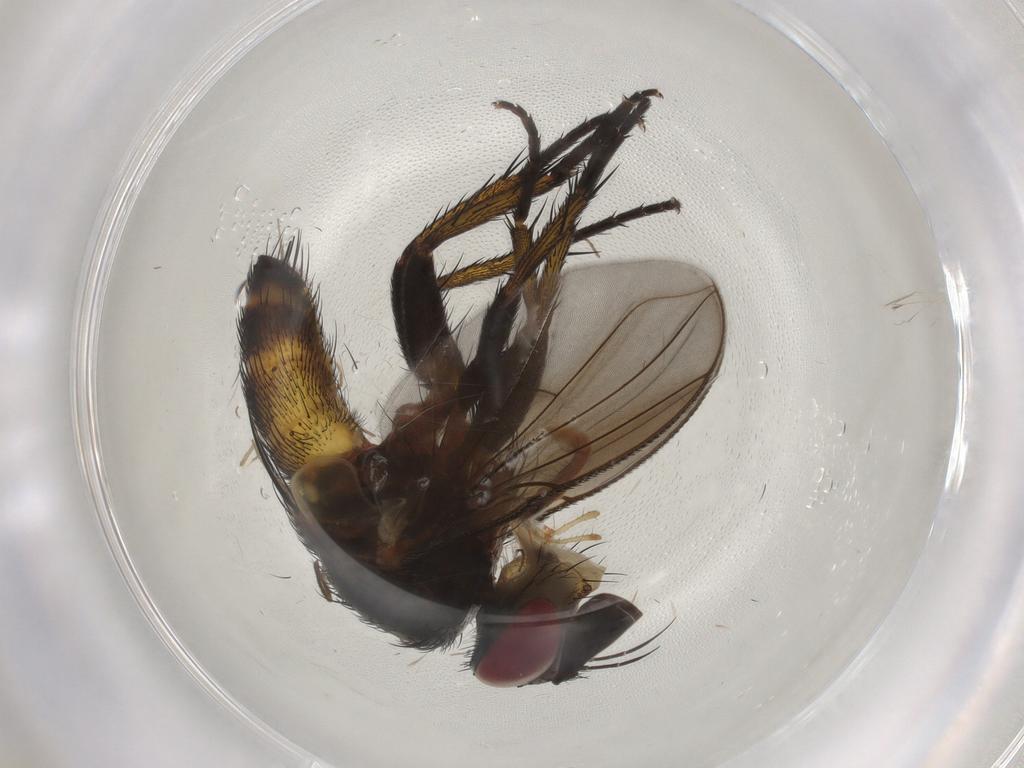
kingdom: Animalia
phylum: Arthropoda
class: Insecta
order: Diptera
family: Tachinidae
